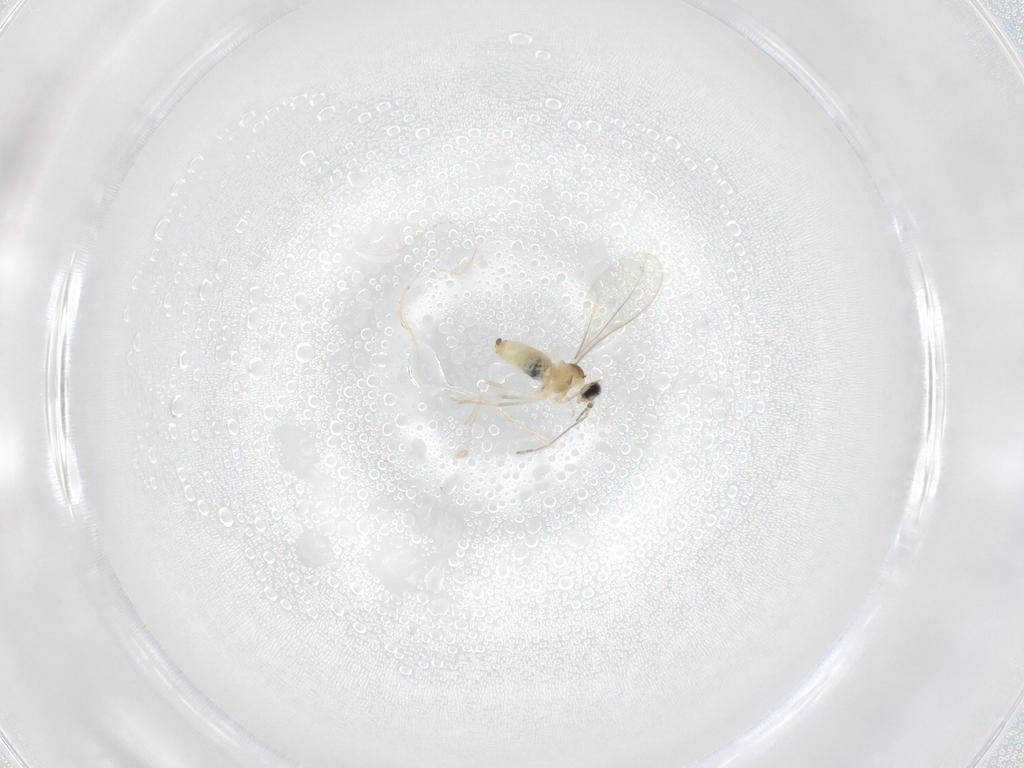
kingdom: Animalia
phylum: Arthropoda
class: Insecta
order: Diptera
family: Cecidomyiidae
